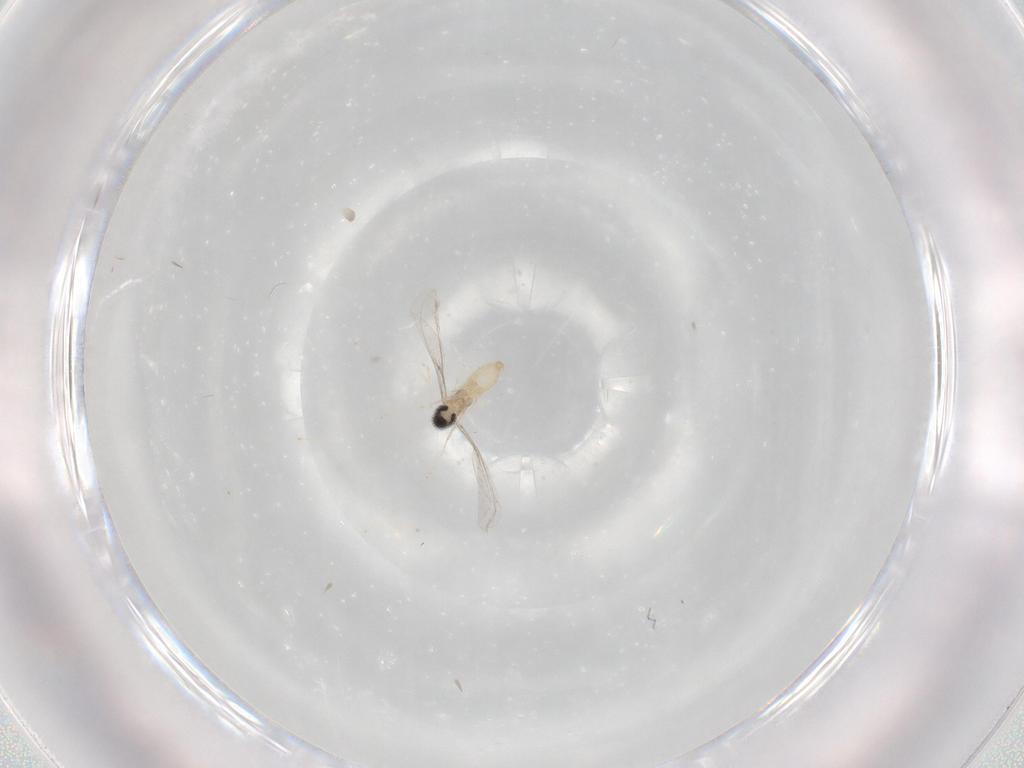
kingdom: Animalia
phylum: Arthropoda
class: Insecta
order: Diptera
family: Cecidomyiidae
